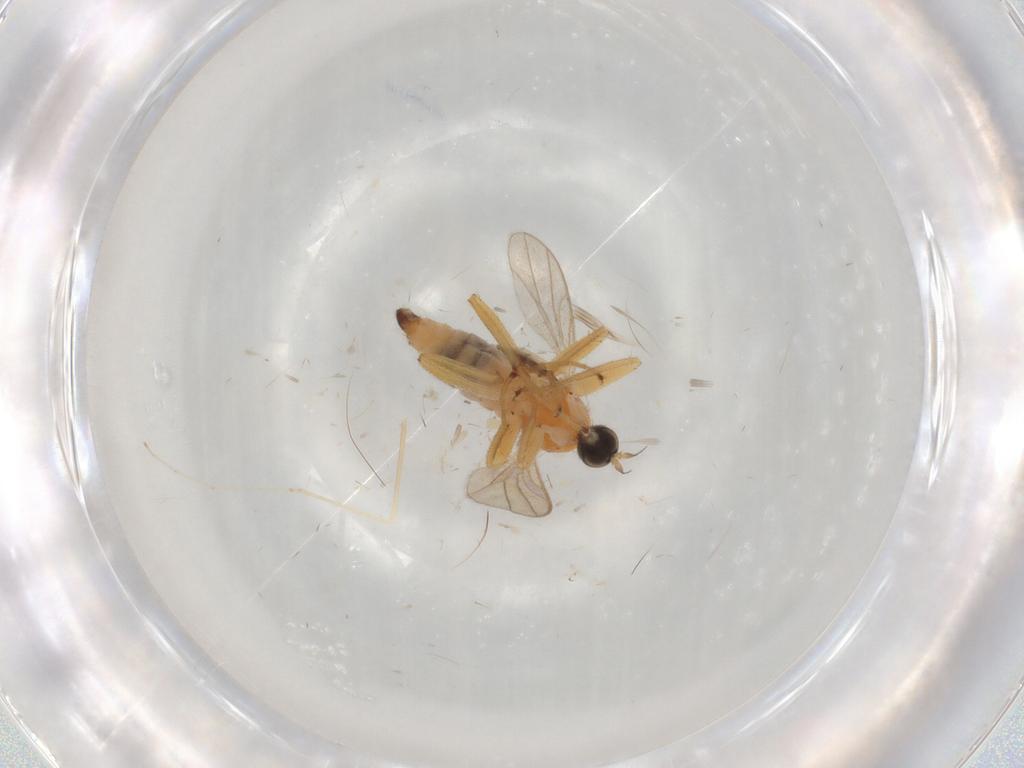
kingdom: Animalia
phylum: Arthropoda
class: Insecta
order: Diptera
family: Hybotidae
